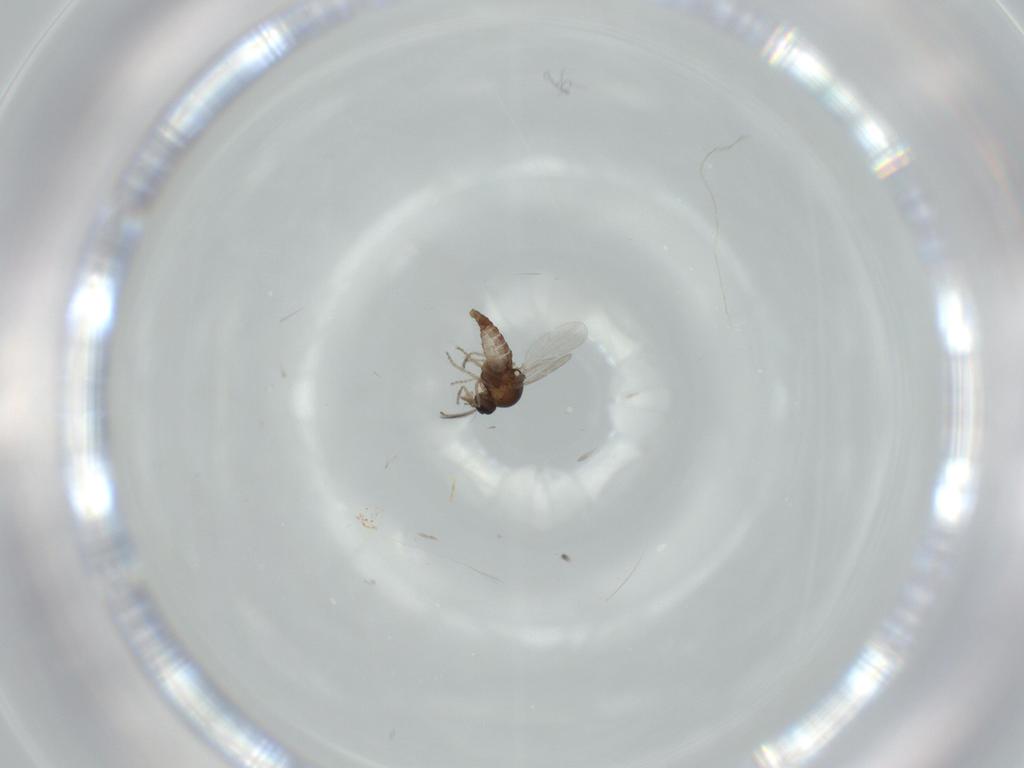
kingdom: Animalia
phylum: Arthropoda
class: Insecta
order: Diptera
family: Ceratopogonidae
